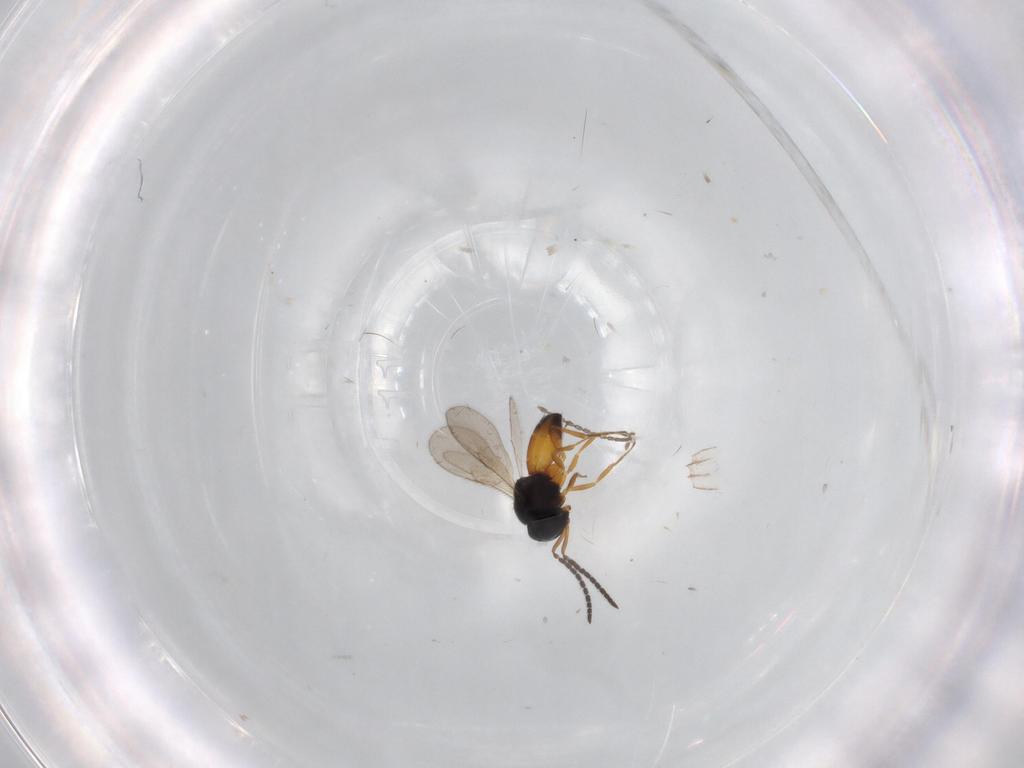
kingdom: Animalia
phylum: Arthropoda
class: Insecta
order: Hymenoptera
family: Scelionidae
